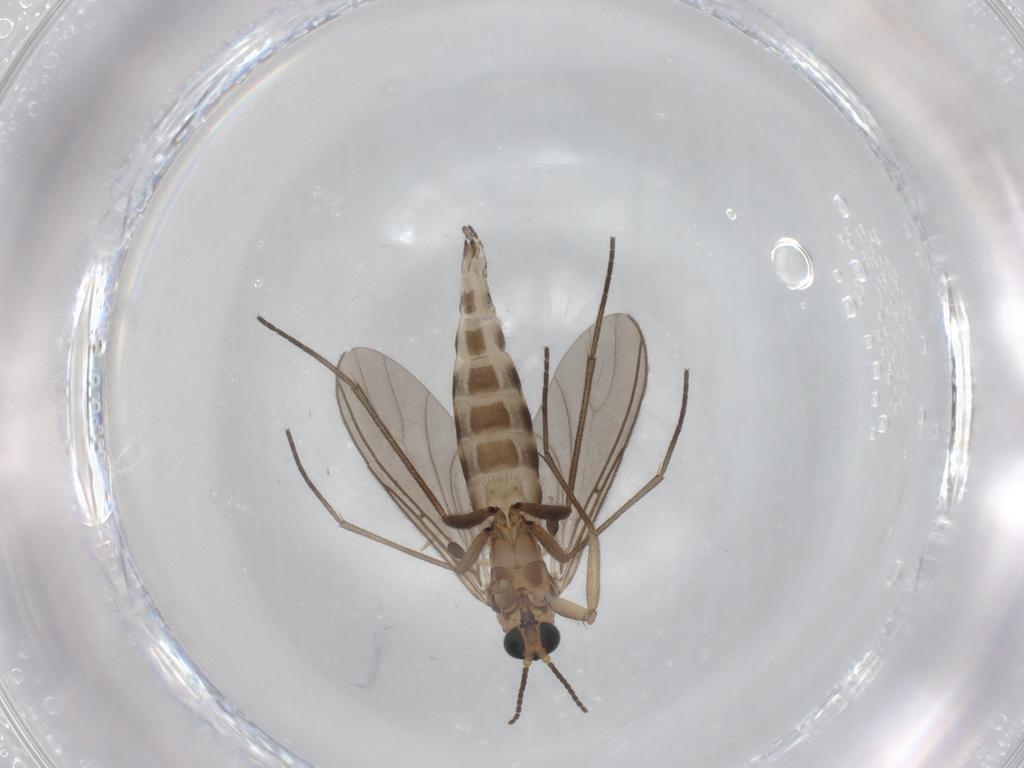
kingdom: Animalia
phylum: Arthropoda
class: Insecta
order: Diptera
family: Sciaridae
